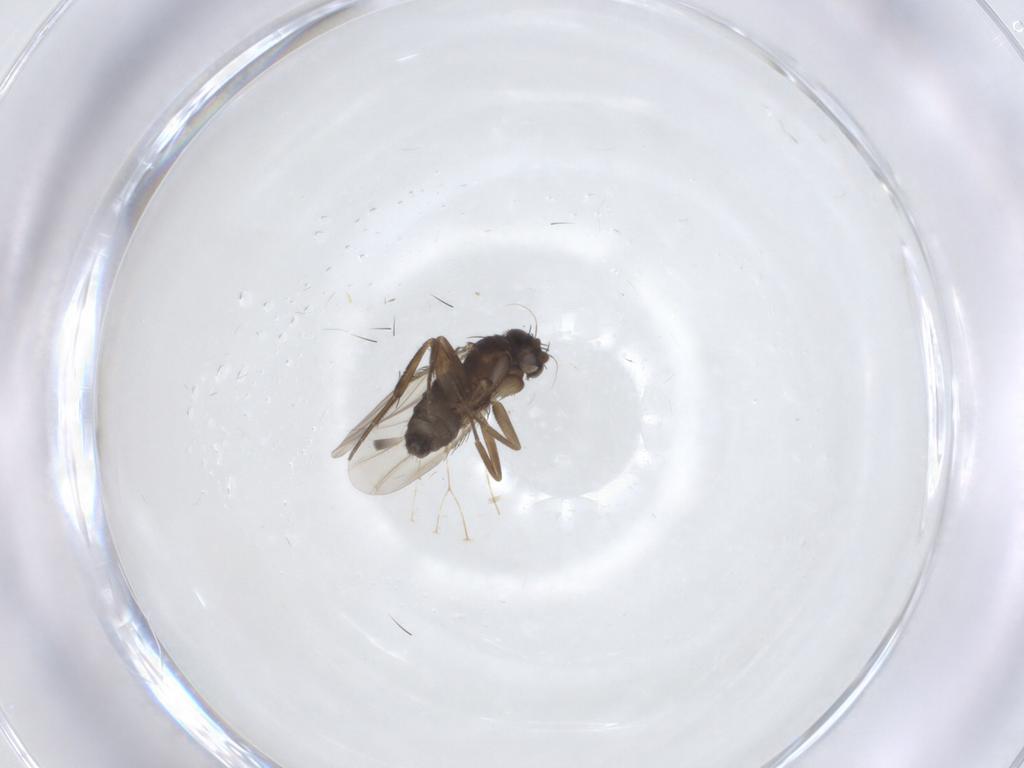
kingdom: Animalia
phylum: Arthropoda
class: Insecta
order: Diptera
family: Phoridae
